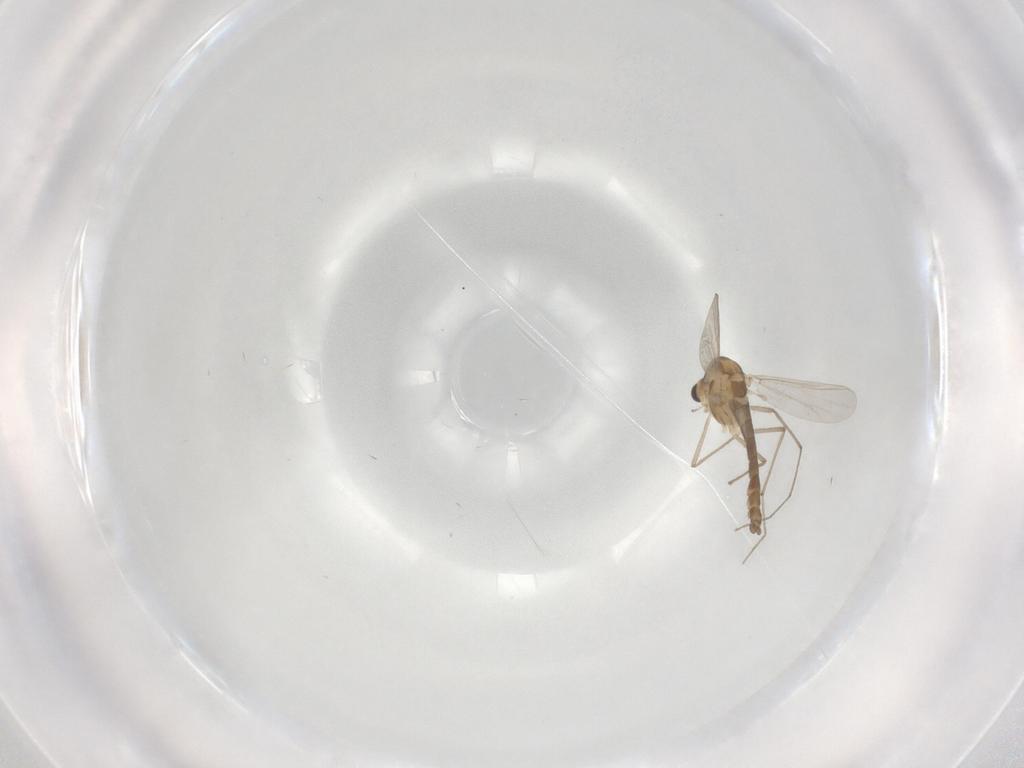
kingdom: Animalia
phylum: Arthropoda
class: Insecta
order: Diptera
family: Chironomidae
